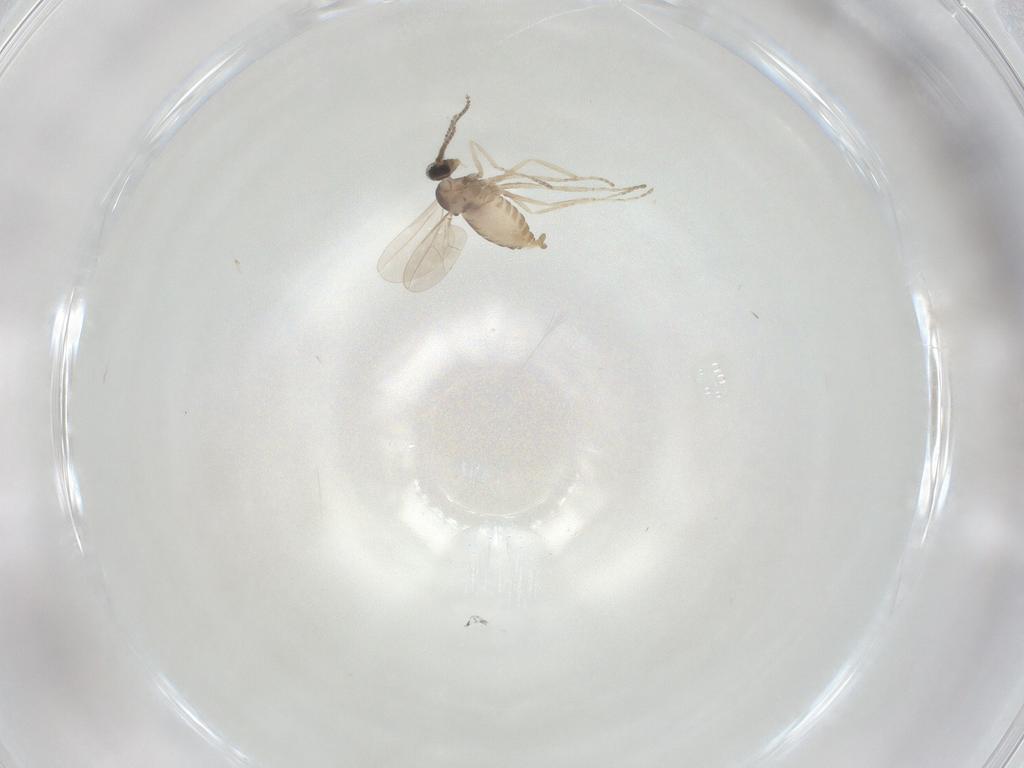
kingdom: Animalia
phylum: Arthropoda
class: Insecta
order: Diptera
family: Cecidomyiidae
